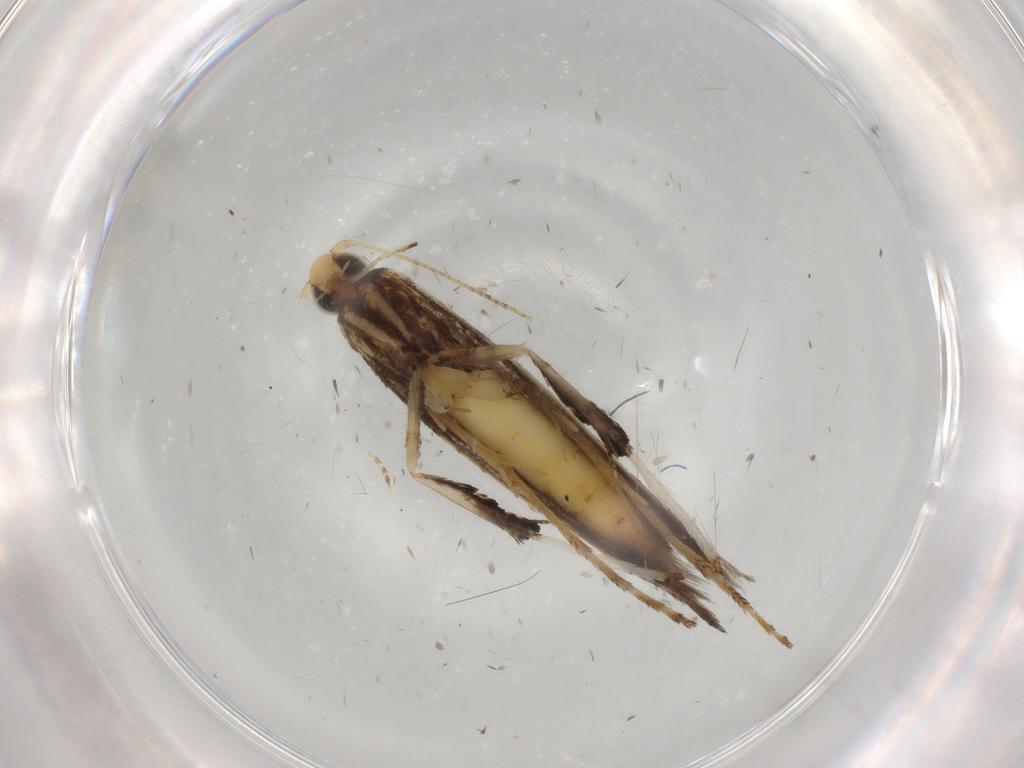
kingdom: Animalia
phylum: Arthropoda
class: Insecta
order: Lepidoptera
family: Gracillariidae
